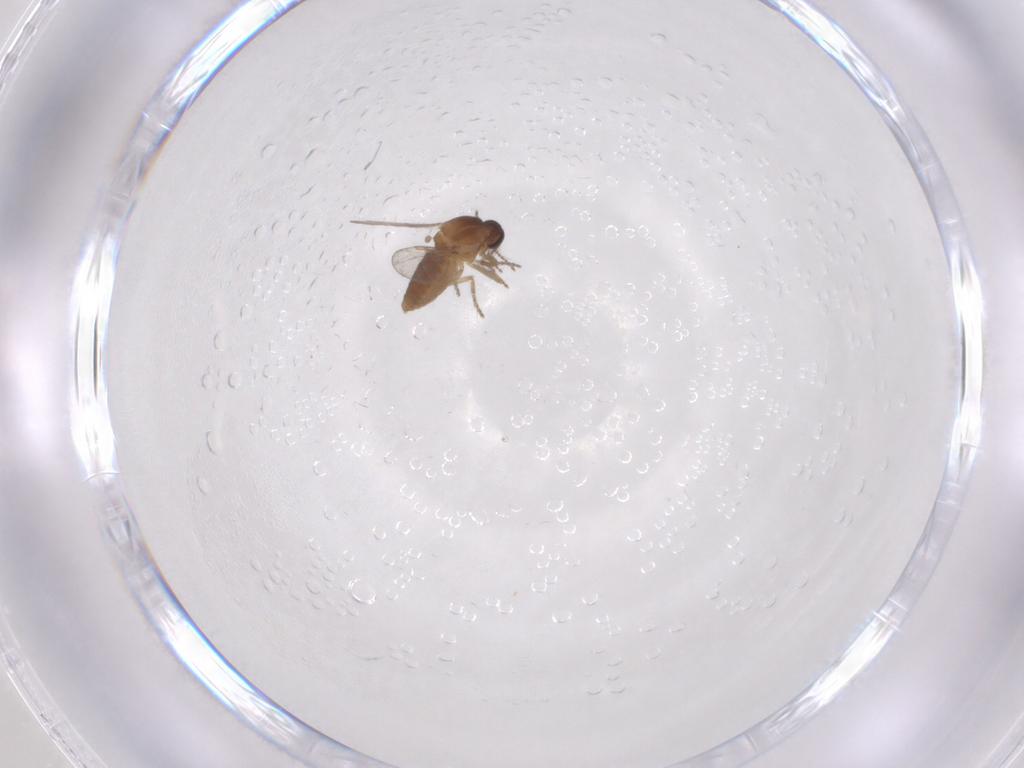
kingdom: Animalia
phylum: Arthropoda
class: Insecta
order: Diptera
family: Ceratopogonidae
